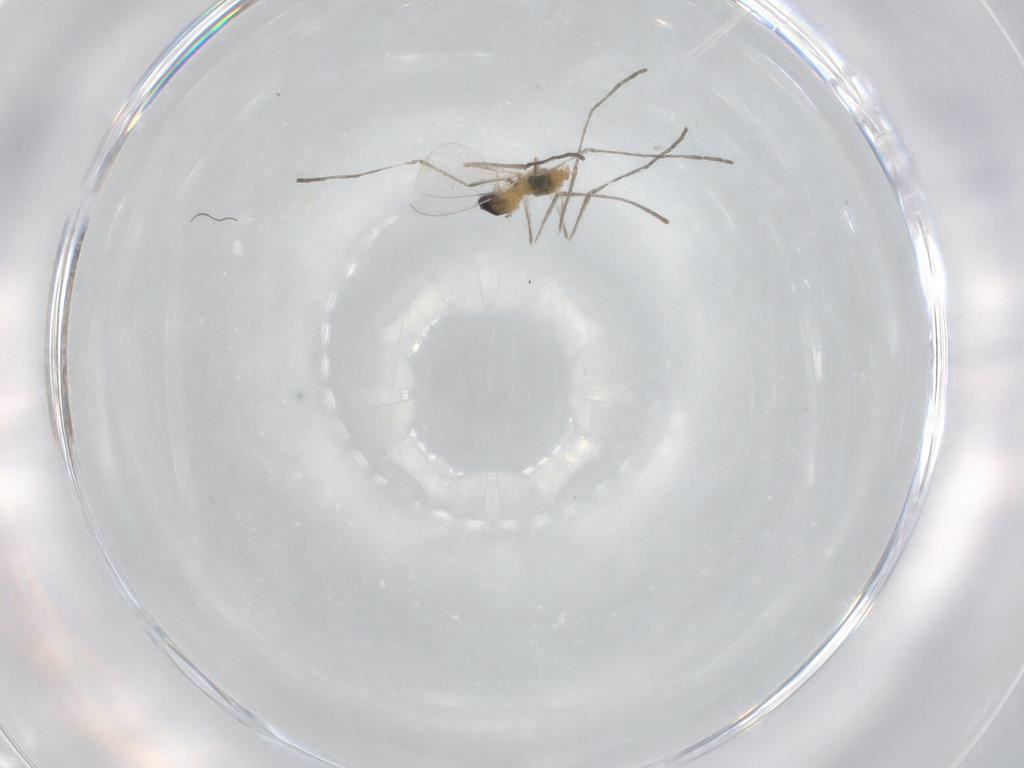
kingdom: Animalia
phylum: Arthropoda
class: Insecta
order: Diptera
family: Cecidomyiidae
